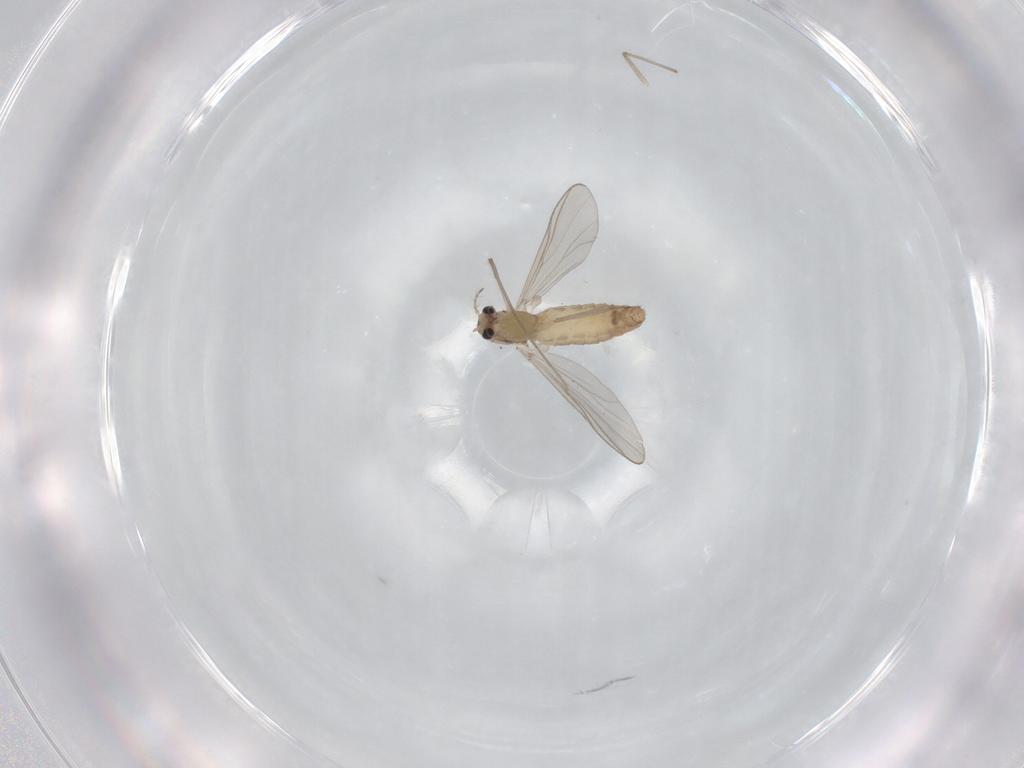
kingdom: Animalia
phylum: Arthropoda
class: Insecta
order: Diptera
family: Chironomidae
